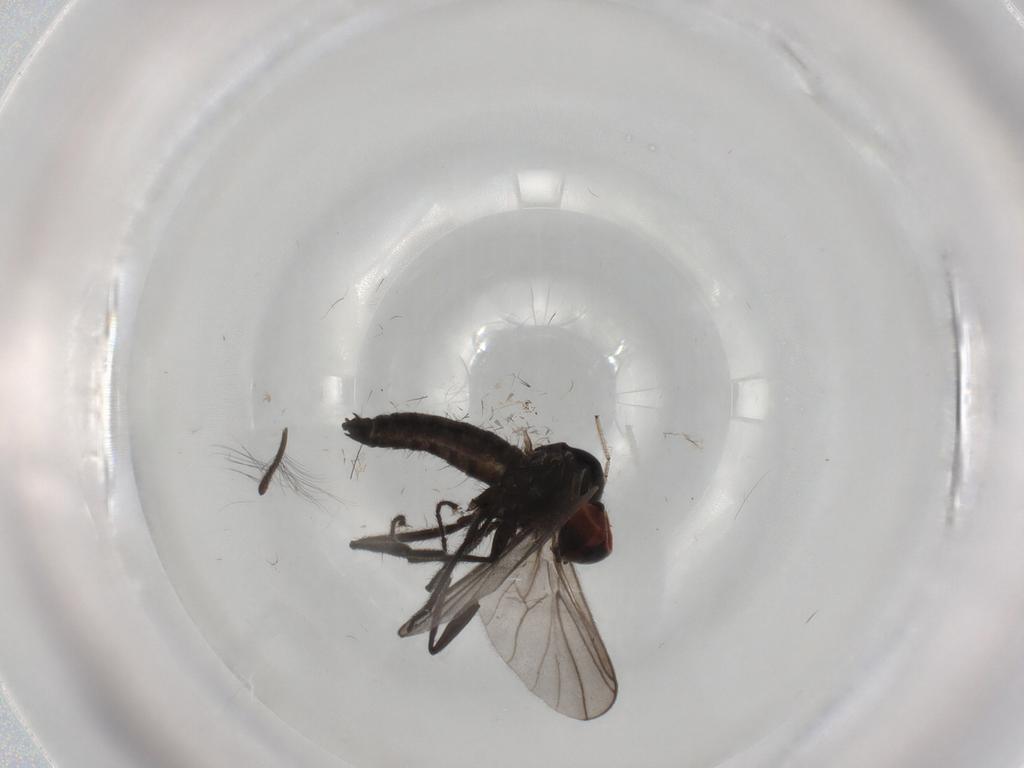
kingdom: Animalia
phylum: Arthropoda
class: Insecta
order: Diptera
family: Ceratopogonidae
